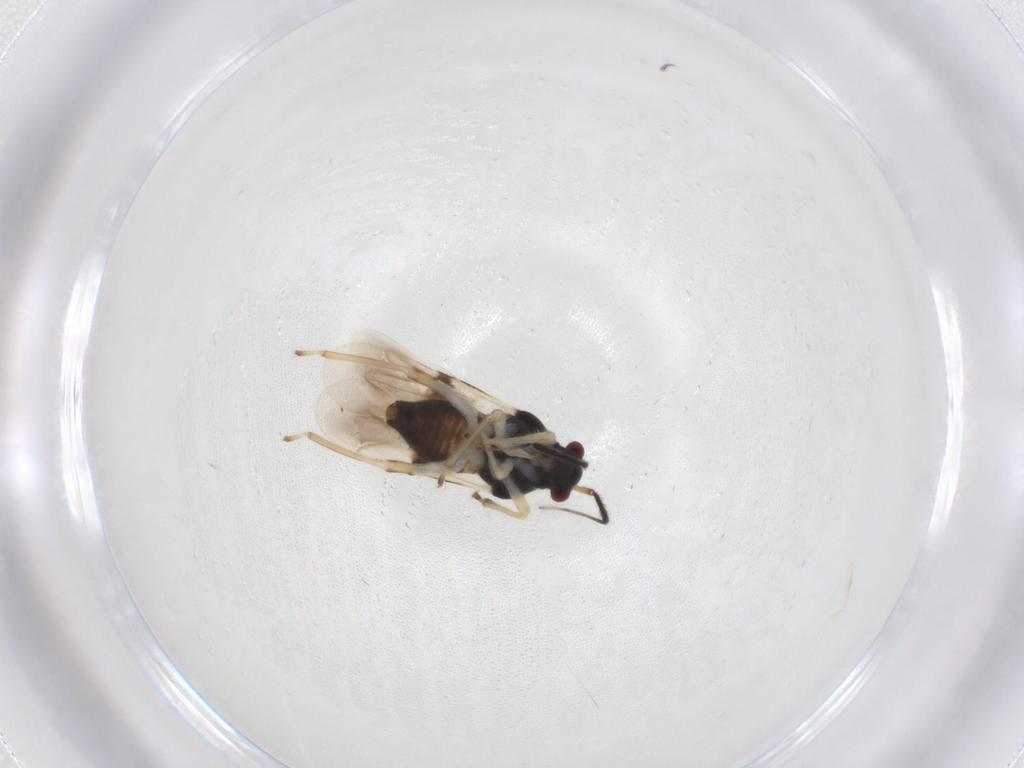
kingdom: Animalia
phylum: Arthropoda
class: Insecta
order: Hemiptera
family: Miridae
